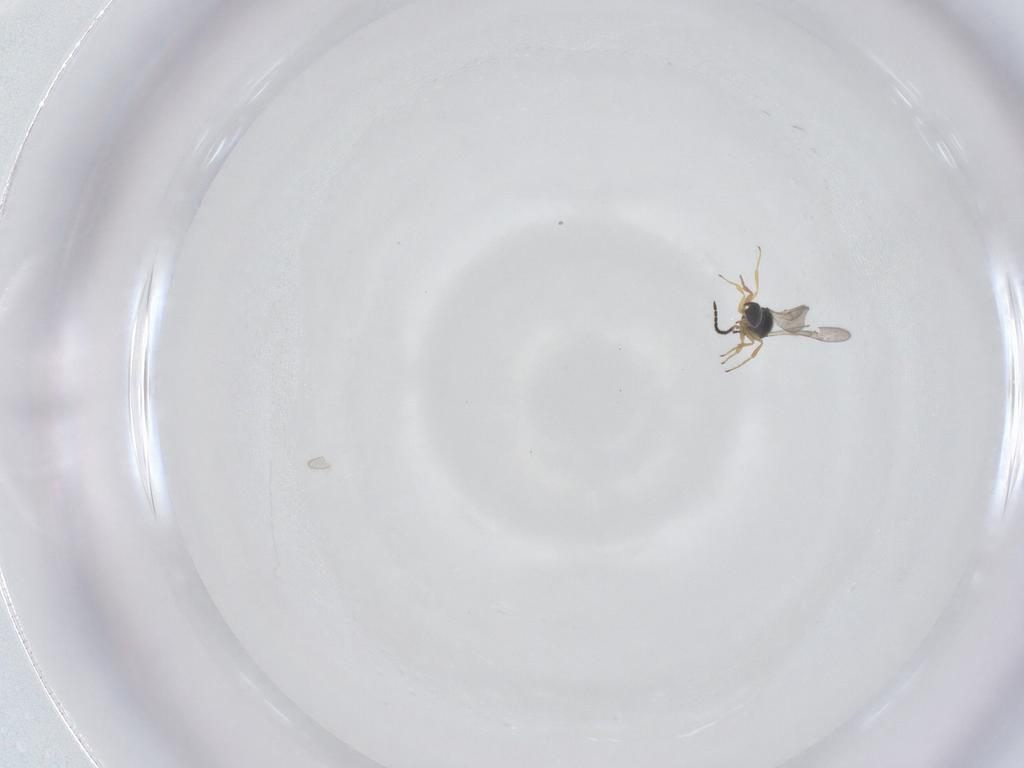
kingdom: Animalia
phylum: Arthropoda
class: Insecta
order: Hymenoptera
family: Scelionidae
